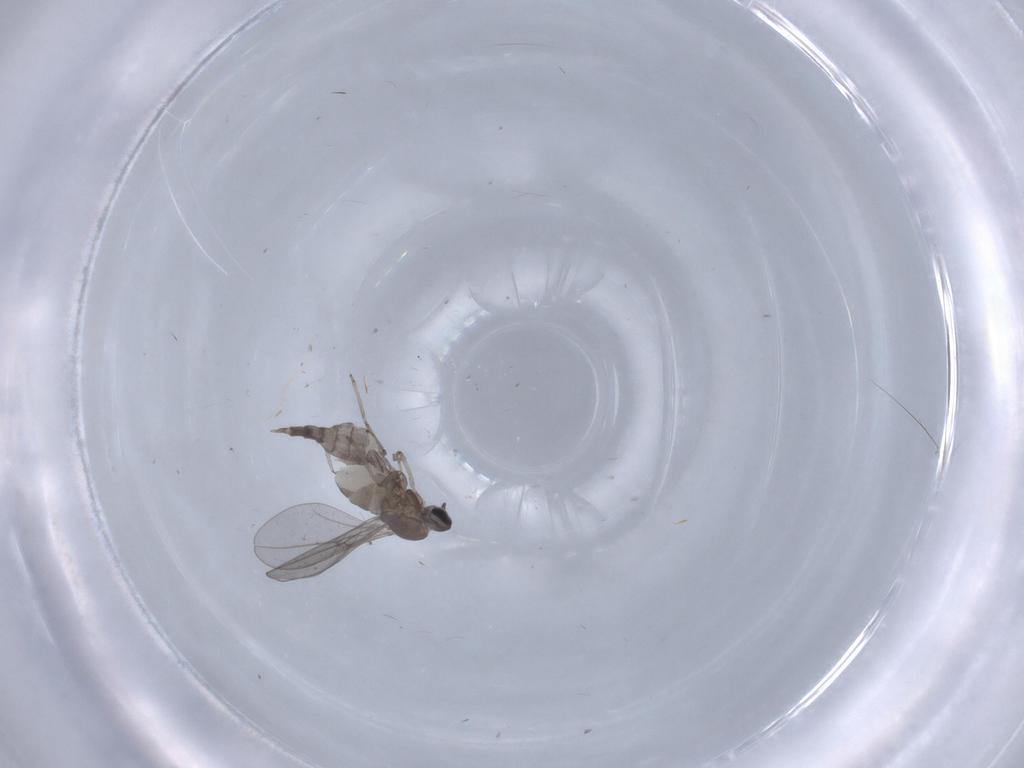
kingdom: Animalia
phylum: Arthropoda
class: Insecta
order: Diptera
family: Cecidomyiidae
